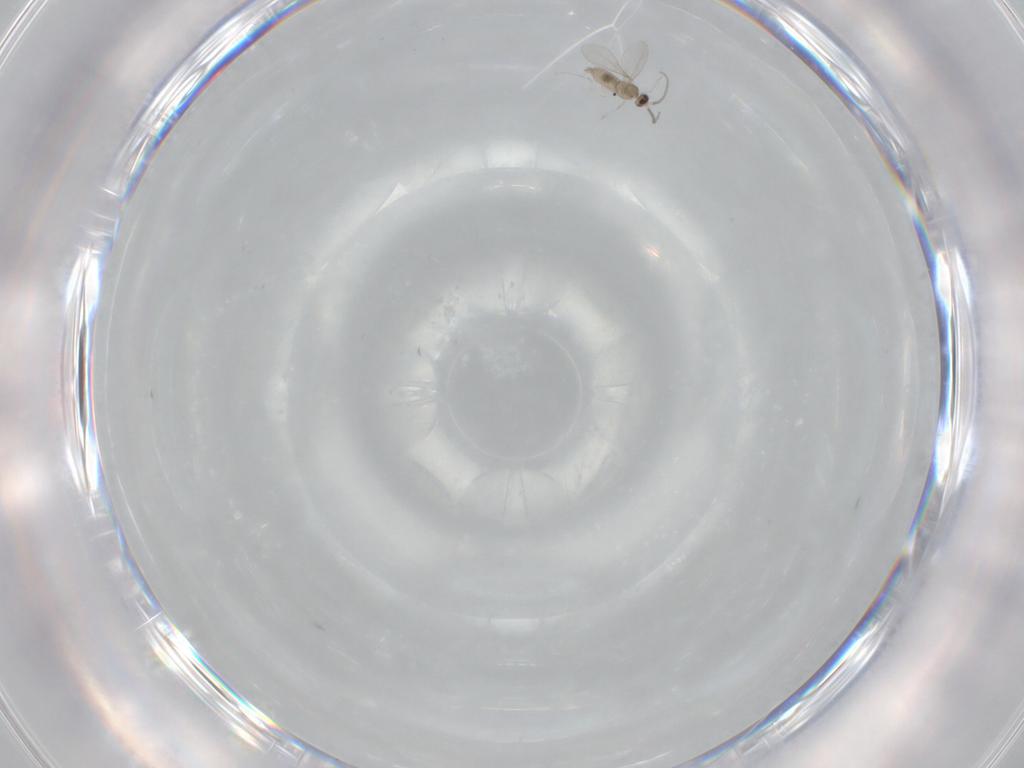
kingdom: Animalia
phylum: Arthropoda
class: Insecta
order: Diptera
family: Cecidomyiidae
